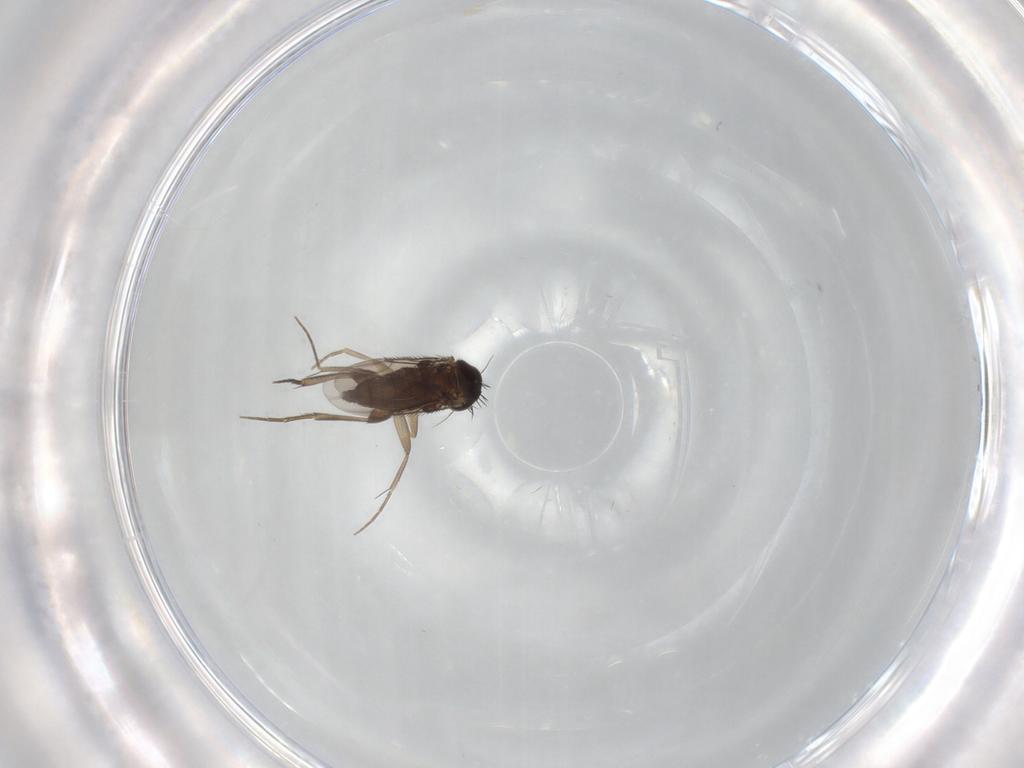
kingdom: Animalia
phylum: Arthropoda
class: Insecta
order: Diptera
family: Phoridae
